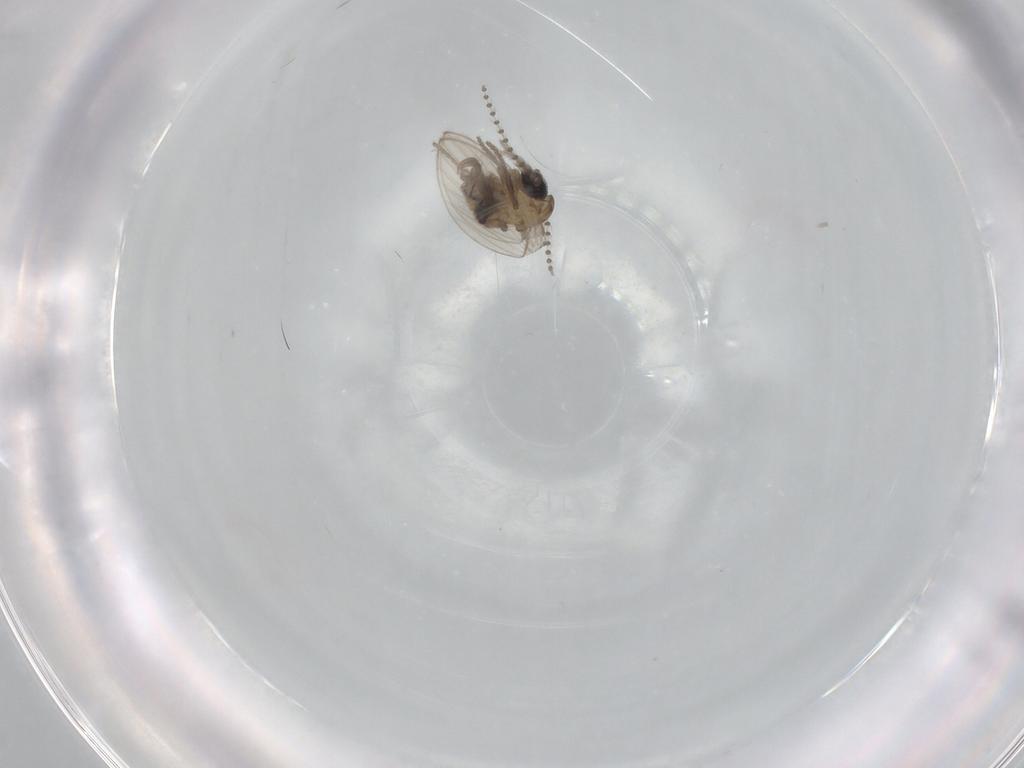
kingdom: Animalia
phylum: Arthropoda
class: Insecta
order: Diptera
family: Psychodidae
